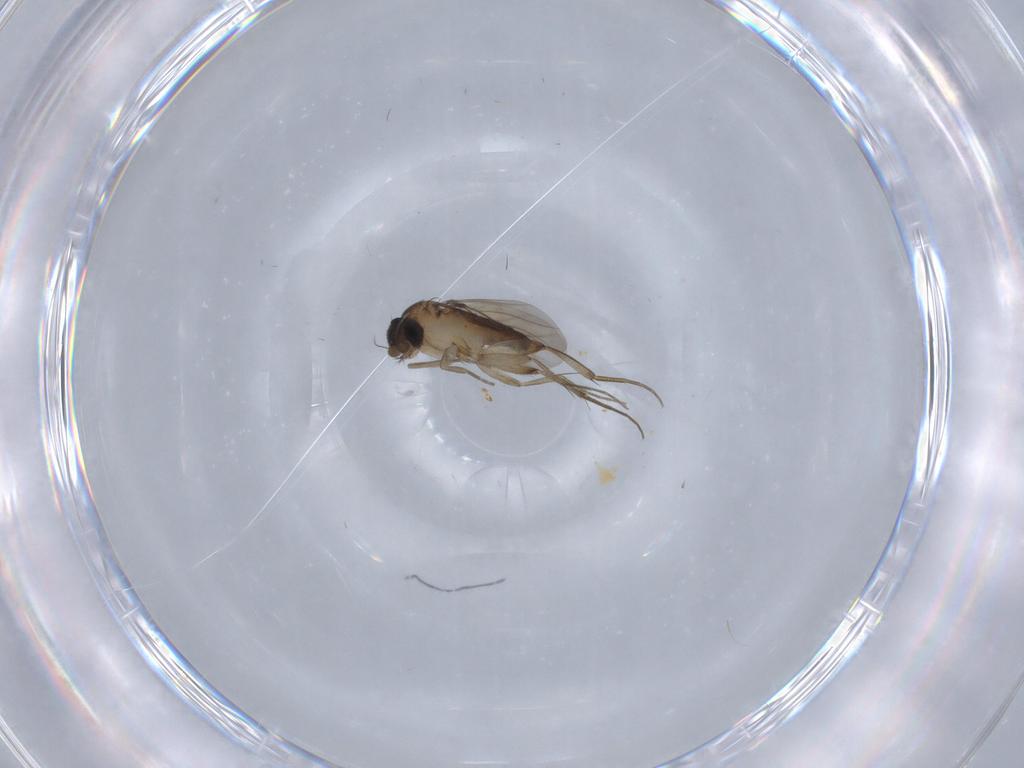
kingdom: Animalia
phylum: Arthropoda
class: Insecta
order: Diptera
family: Phoridae
